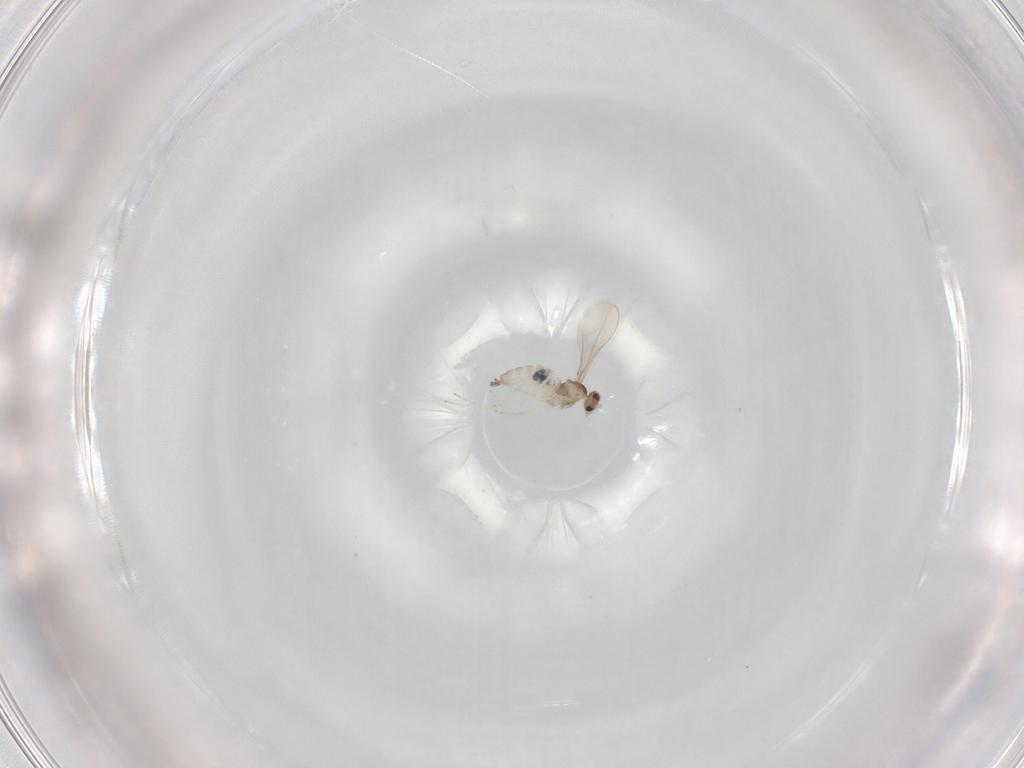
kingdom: Animalia
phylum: Arthropoda
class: Insecta
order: Diptera
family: Cecidomyiidae
